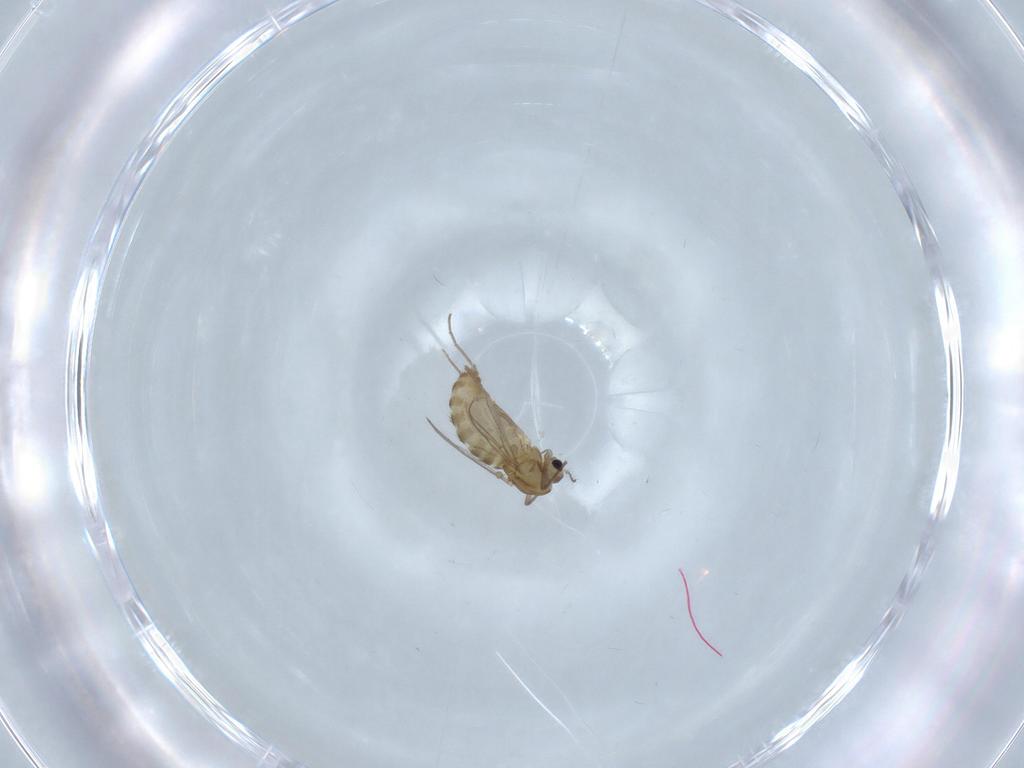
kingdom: Animalia
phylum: Arthropoda
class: Insecta
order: Diptera
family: Chironomidae
